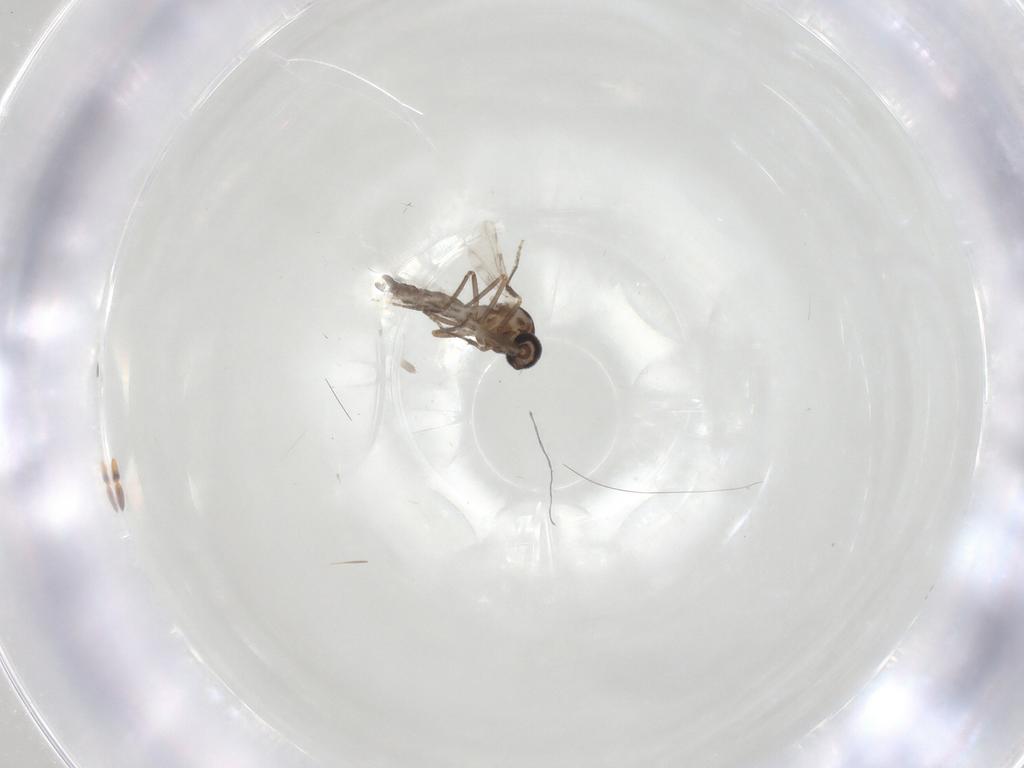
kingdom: Animalia
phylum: Arthropoda
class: Insecta
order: Diptera
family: Ceratopogonidae
